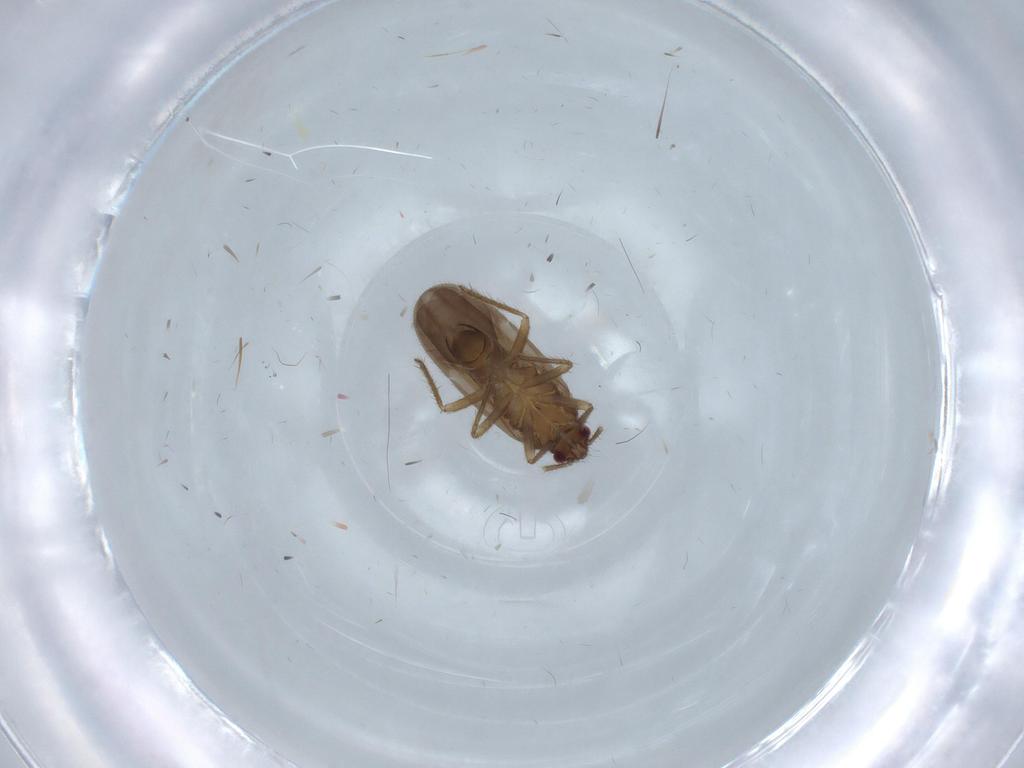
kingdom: Animalia
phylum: Arthropoda
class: Insecta
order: Hemiptera
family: Ceratocombidae
